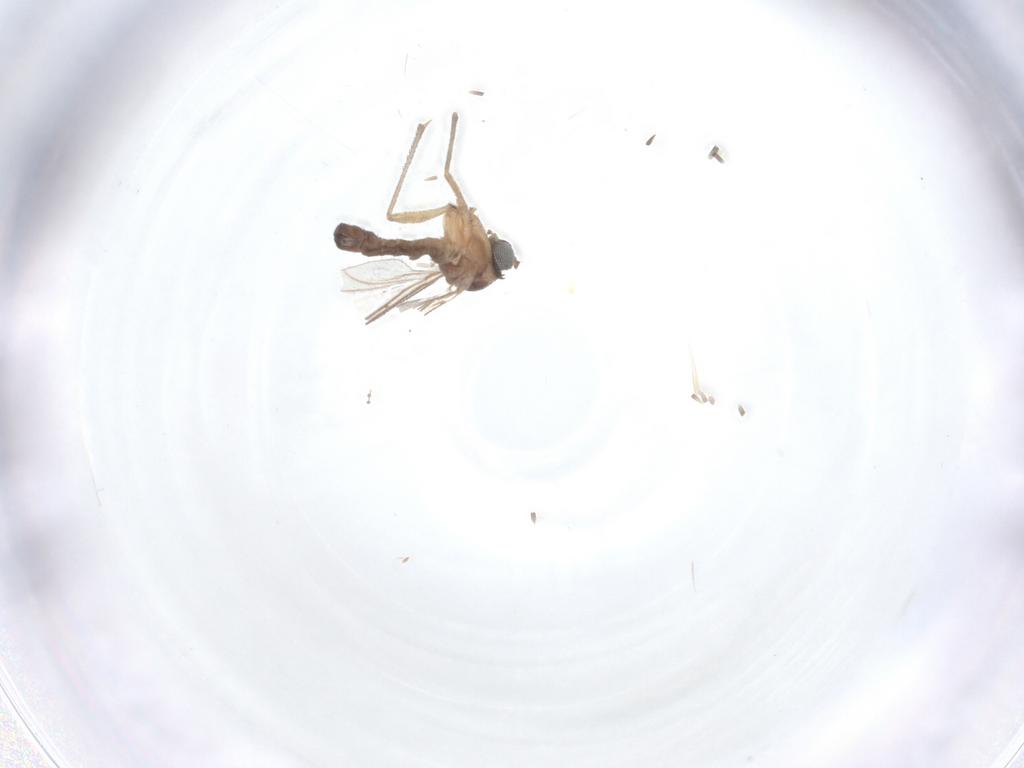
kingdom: Animalia
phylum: Arthropoda
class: Insecta
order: Diptera
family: Sciaridae
